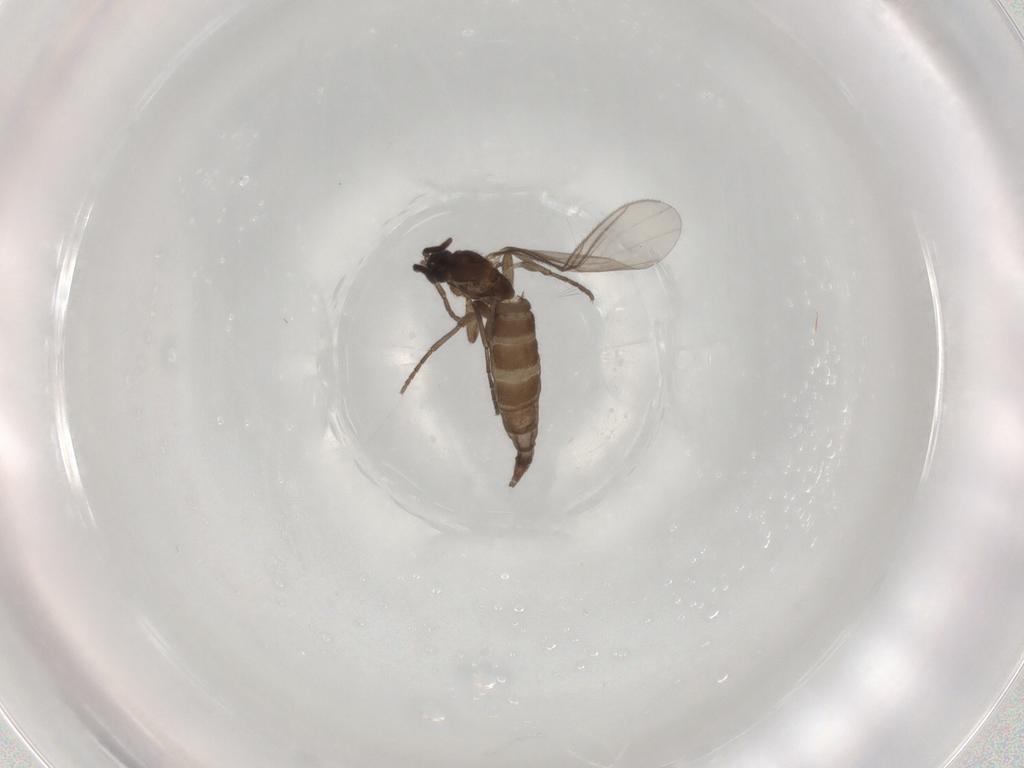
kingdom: Animalia
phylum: Arthropoda
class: Insecta
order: Diptera
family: Sciaridae
